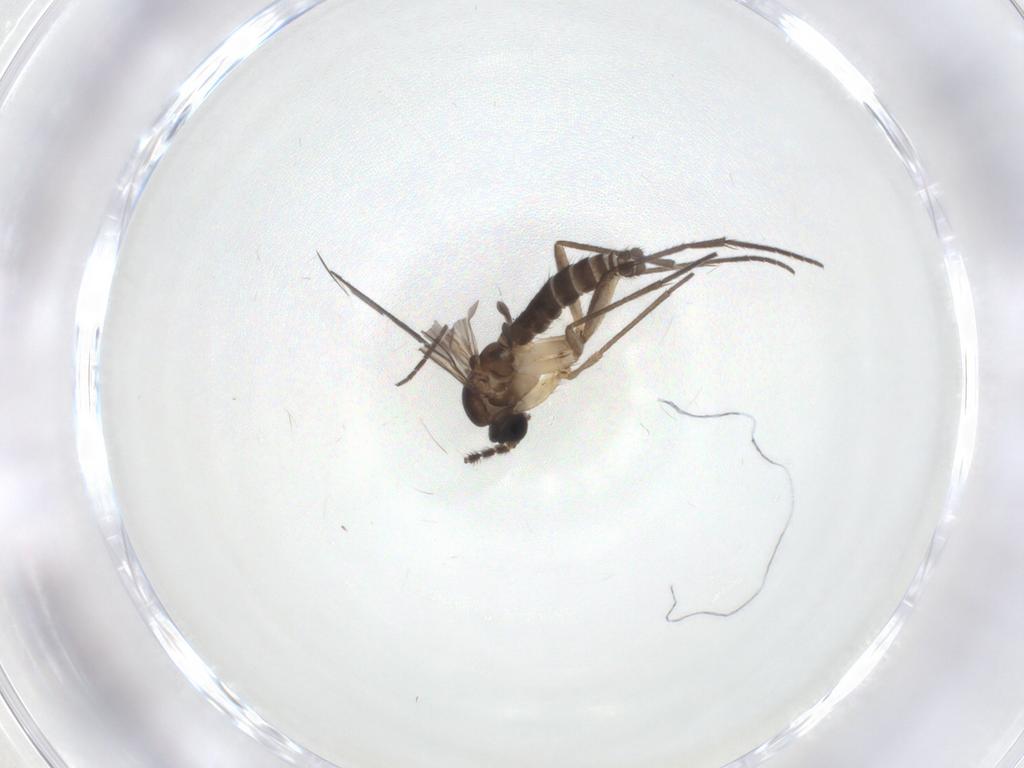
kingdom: Animalia
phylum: Arthropoda
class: Insecta
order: Diptera
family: Sciaridae
